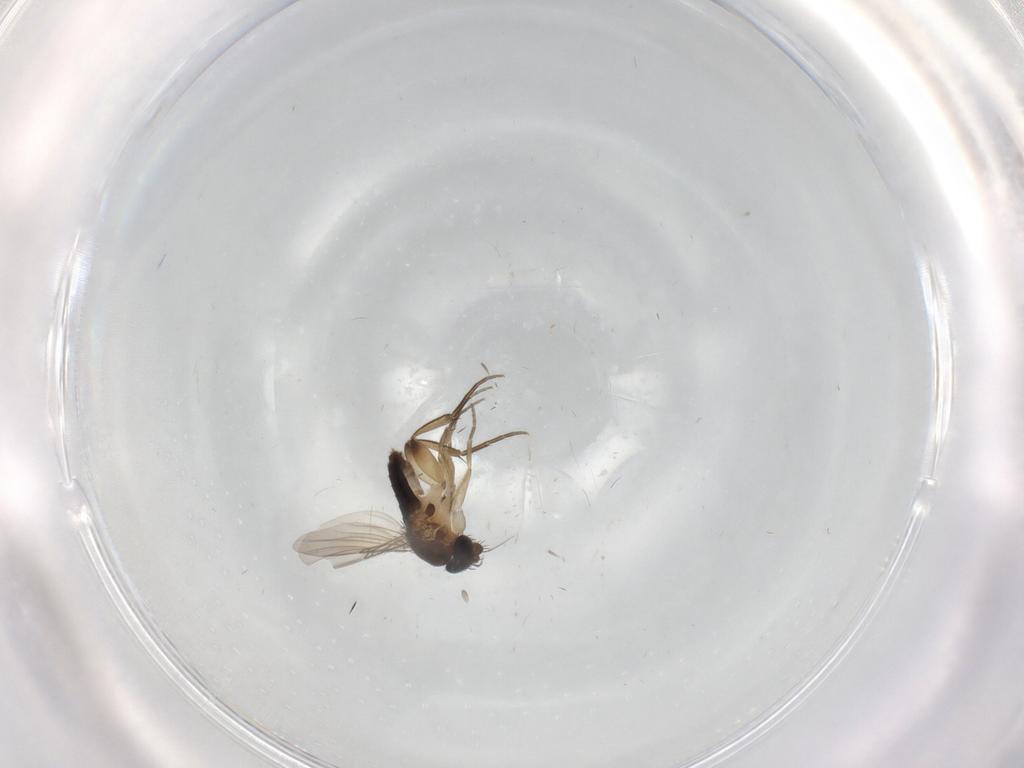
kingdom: Animalia
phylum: Arthropoda
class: Insecta
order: Diptera
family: Phoridae
